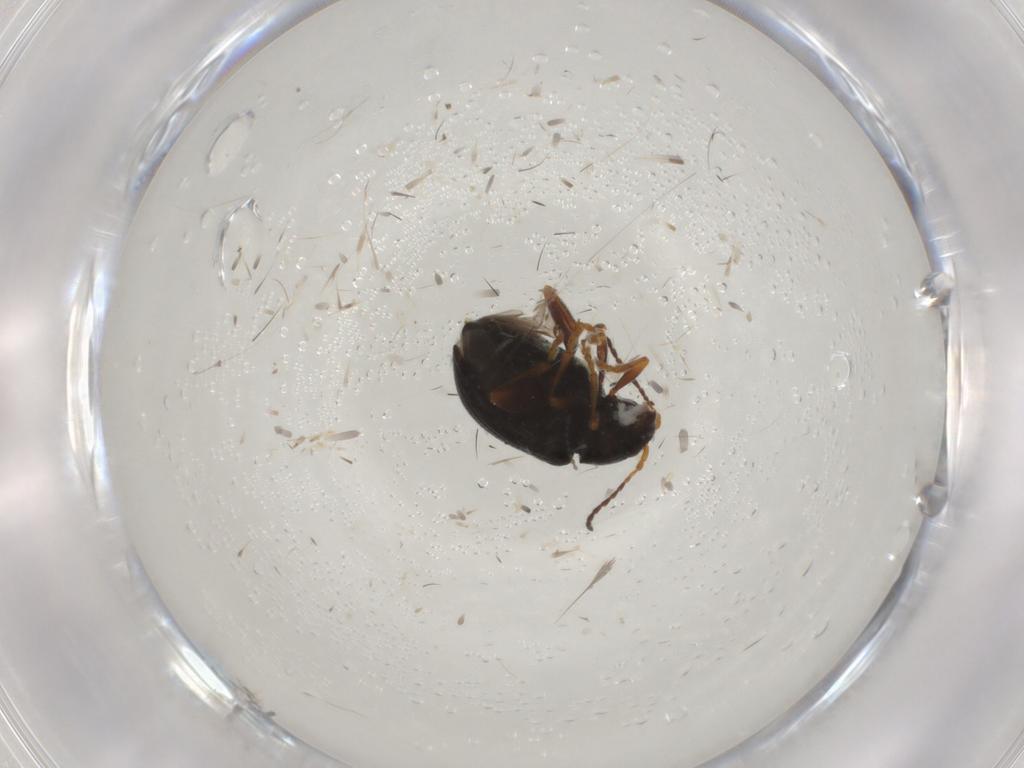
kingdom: Animalia
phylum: Arthropoda
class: Insecta
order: Coleoptera
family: Chrysomelidae
